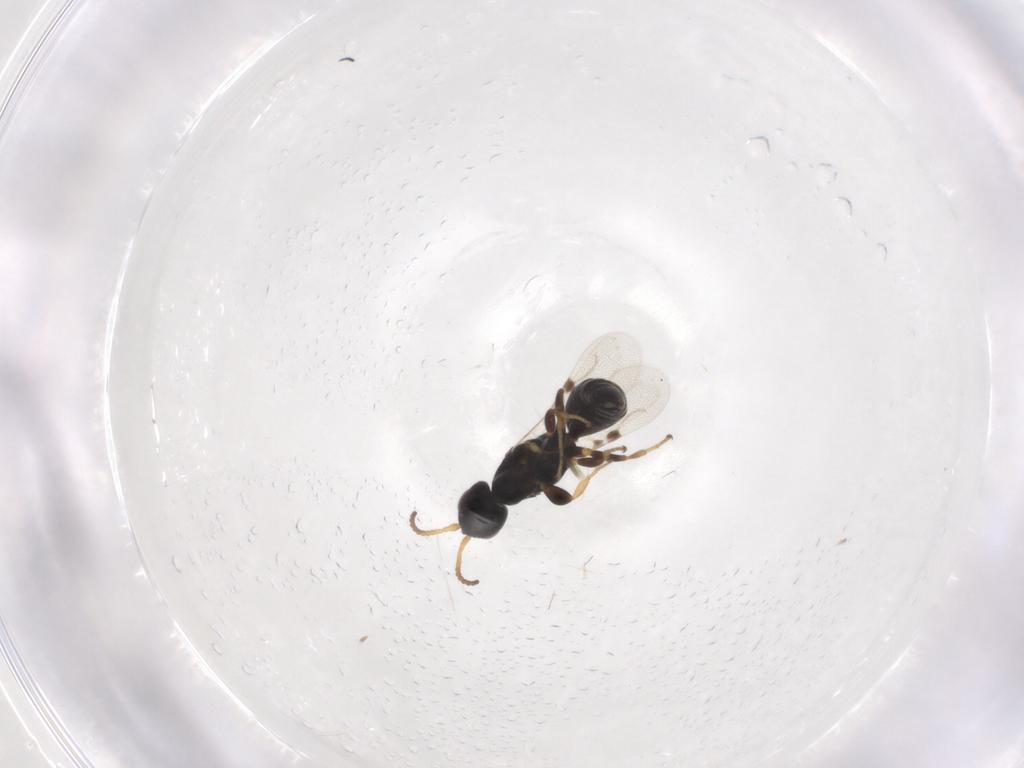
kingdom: Animalia
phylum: Arthropoda
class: Insecta
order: Hymenoptera
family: Bethylidae
